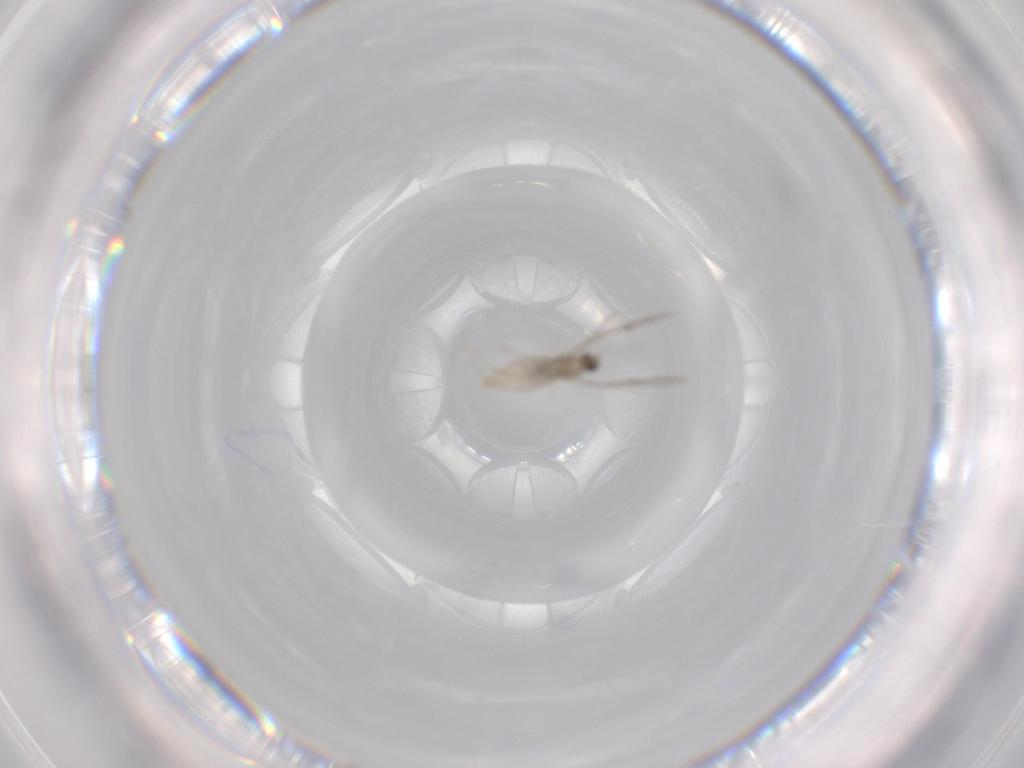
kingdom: Animalia
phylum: Arthropoda
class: Insecta
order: Diptera
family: Cecidomyiidae
